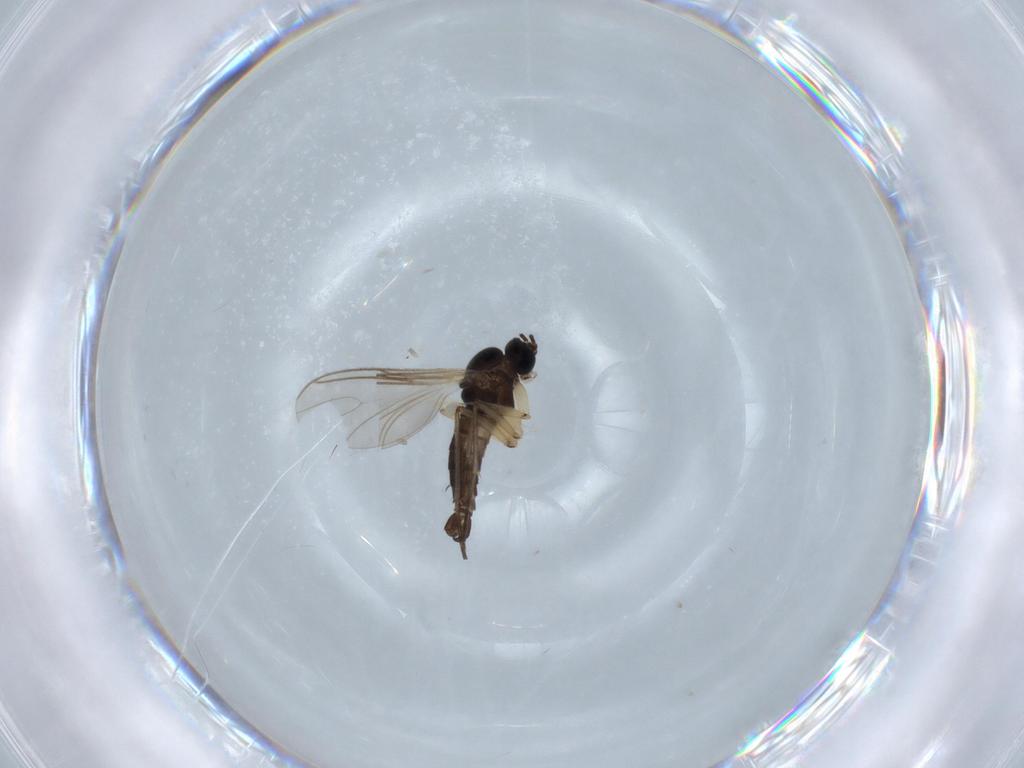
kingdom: Animalia
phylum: Arthropoda
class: Insecta
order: Diptera
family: Sciaridae
